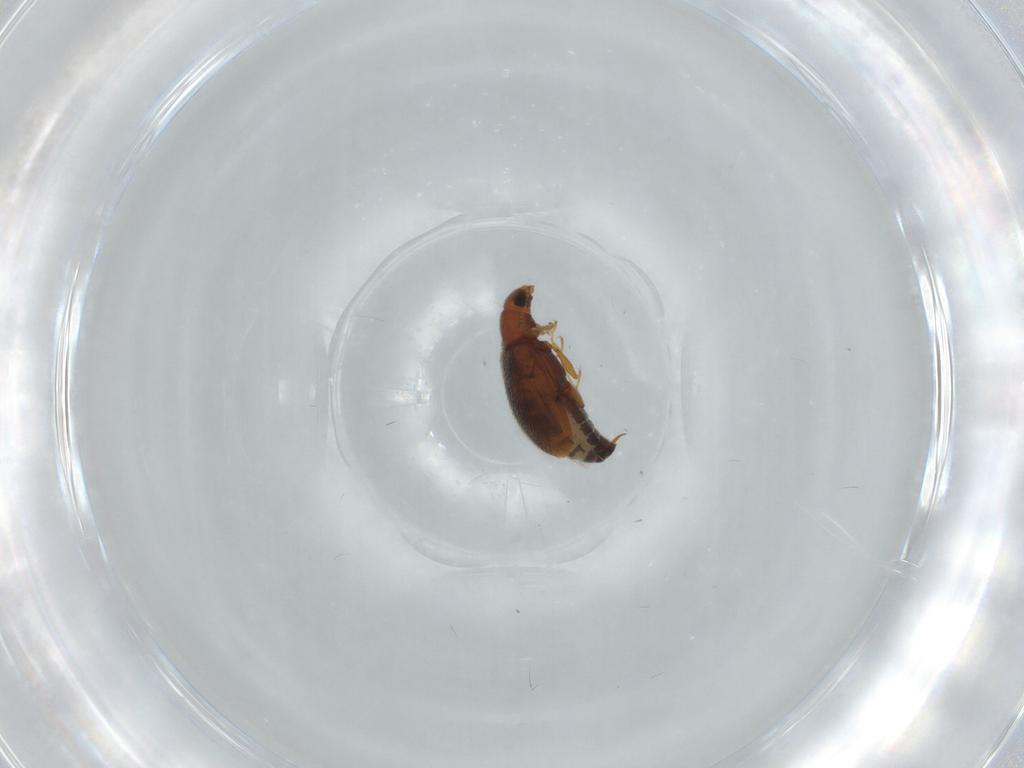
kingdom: Animalia
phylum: Arthropoda
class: Insecta
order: Coleoptera
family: Latridiidae
